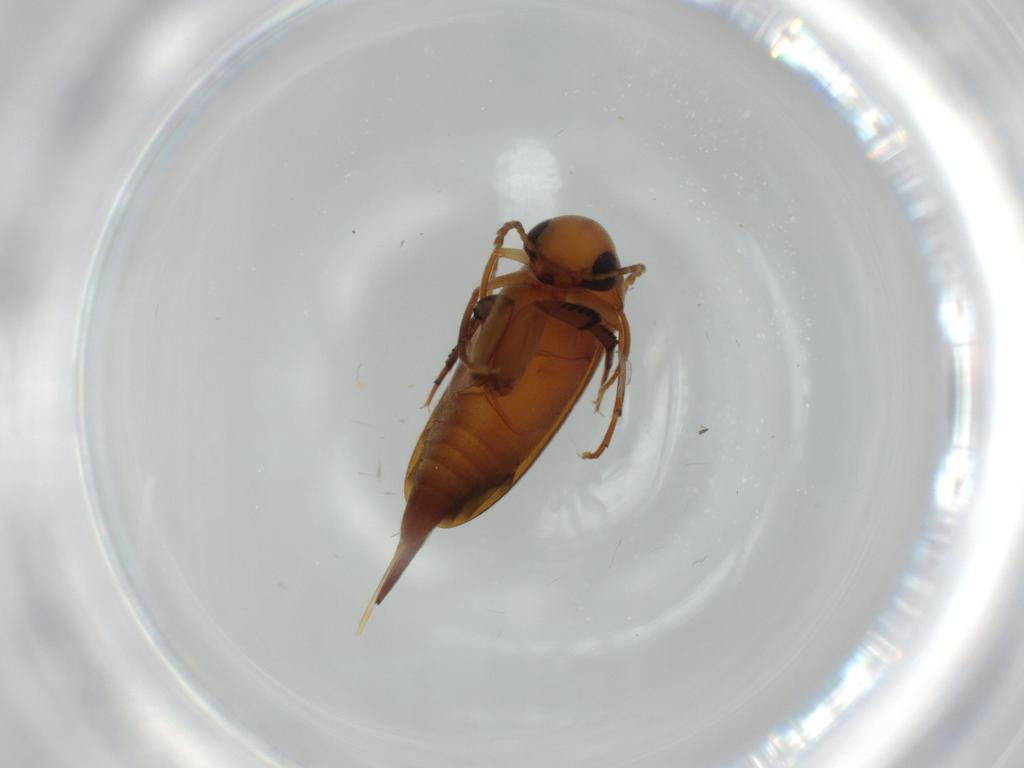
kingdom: Animalia
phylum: Arthropoda
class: Insecta
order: Coleoptera
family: Mordellidae
